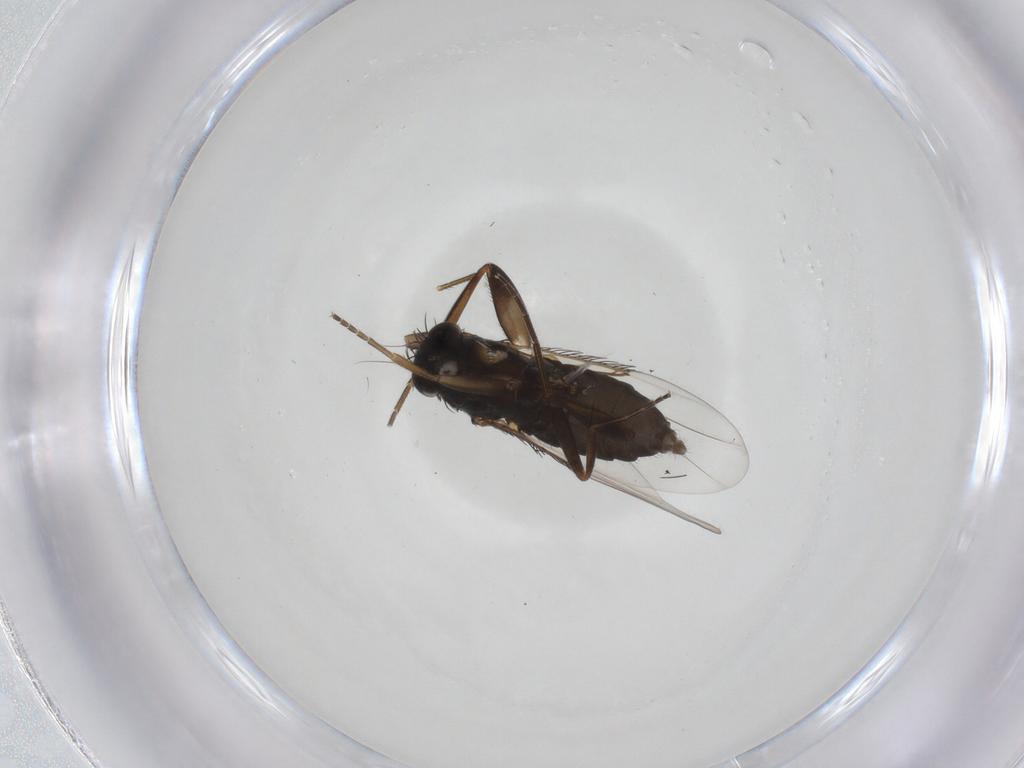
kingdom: Animalia
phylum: Arthropoda
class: Insecta
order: Diptera
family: Phoridae
